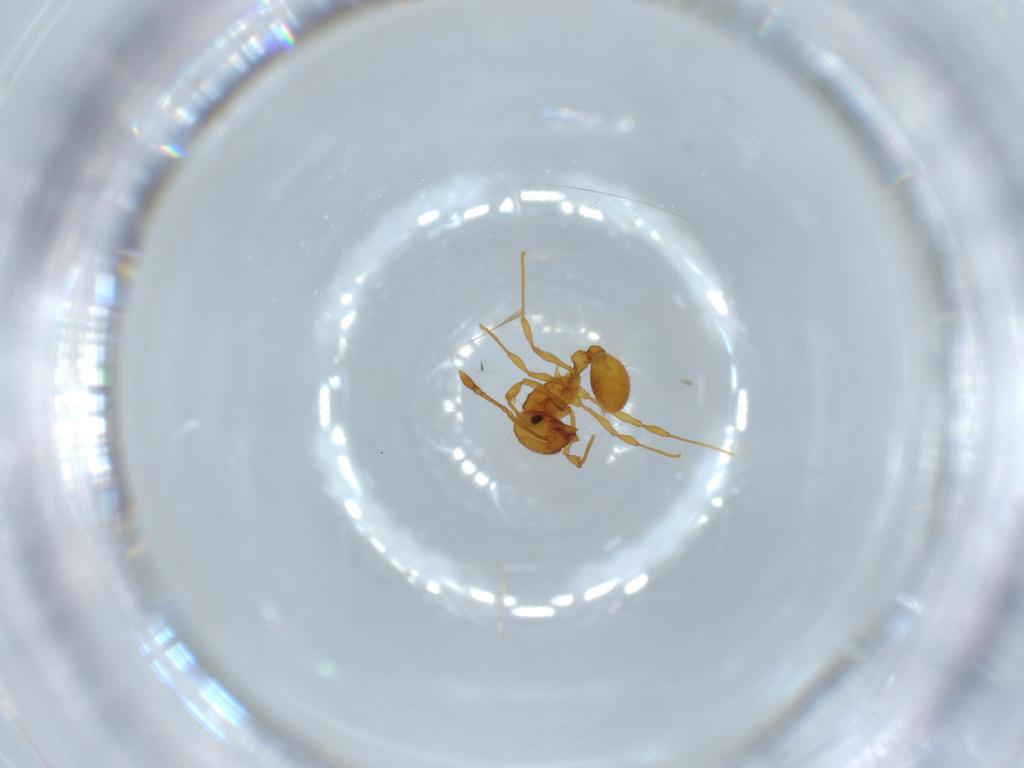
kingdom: Animalia
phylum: Arthropoda
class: Insecta
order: Hymenoptera
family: Formicidae
